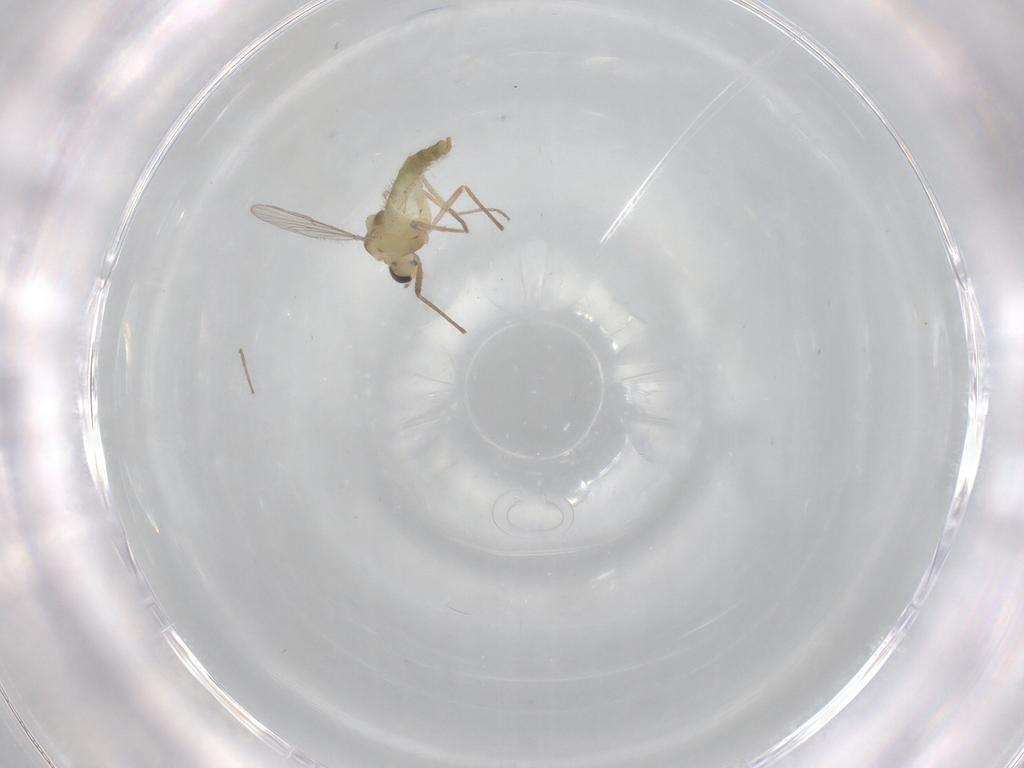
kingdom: Animalia
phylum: Arthropoda
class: Insecta
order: Diptera
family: Chironomidae
